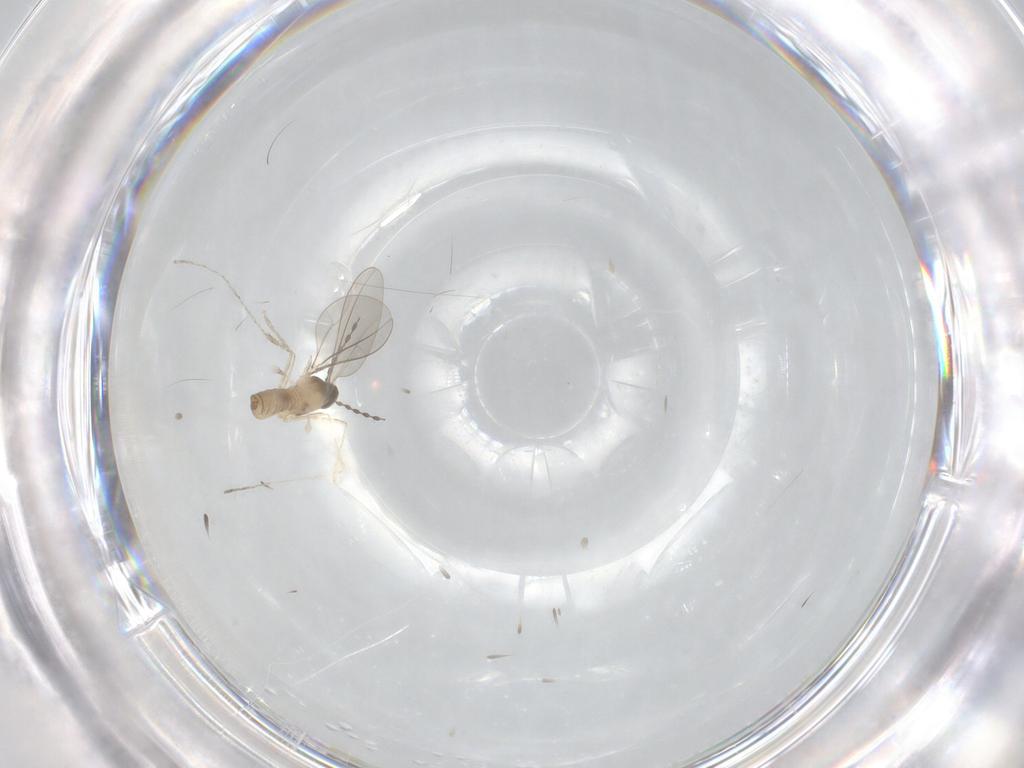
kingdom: Animalia
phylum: Arthropoda
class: Insecta
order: Diptera
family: Cecidomyiidae
